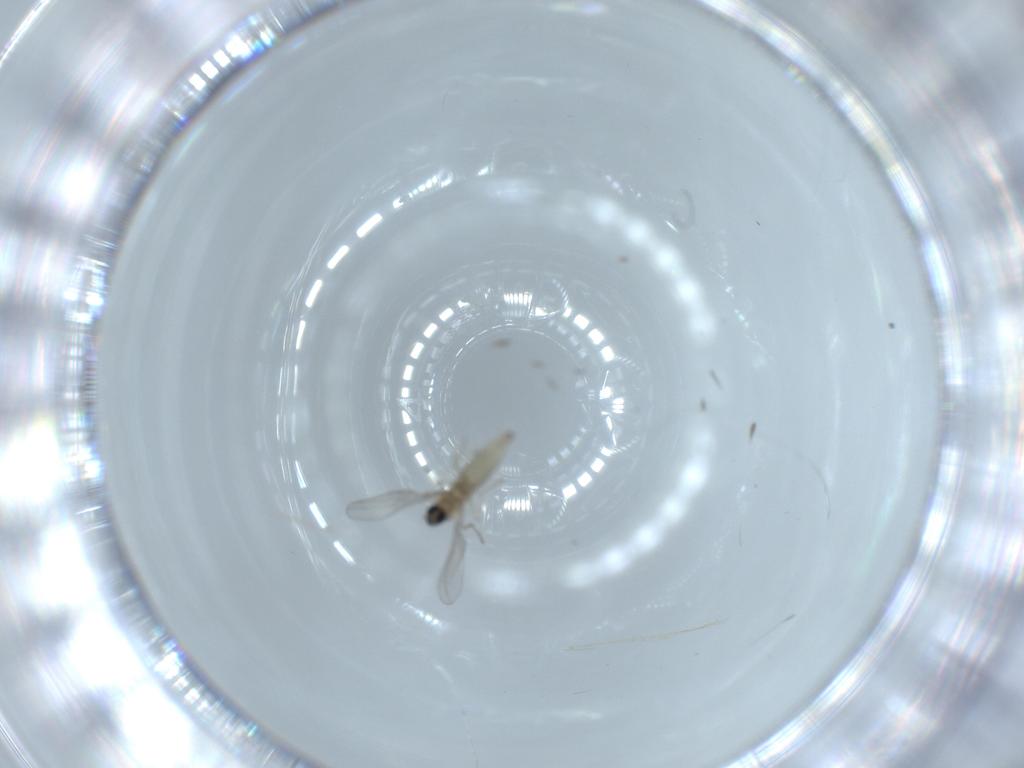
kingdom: Animalia
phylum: Arthropoda
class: Insecta
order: Diptera
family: Cecidomyiidae
